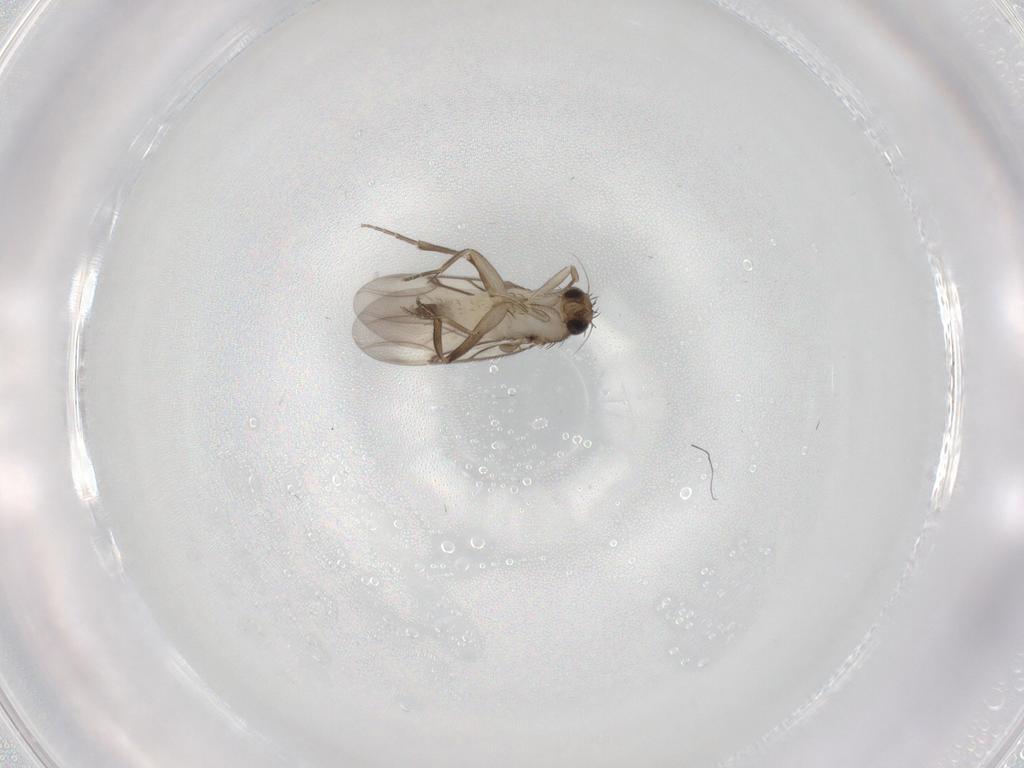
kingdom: Animalia
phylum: Arthropoda
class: Insecta
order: Diptera
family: Phoridae
